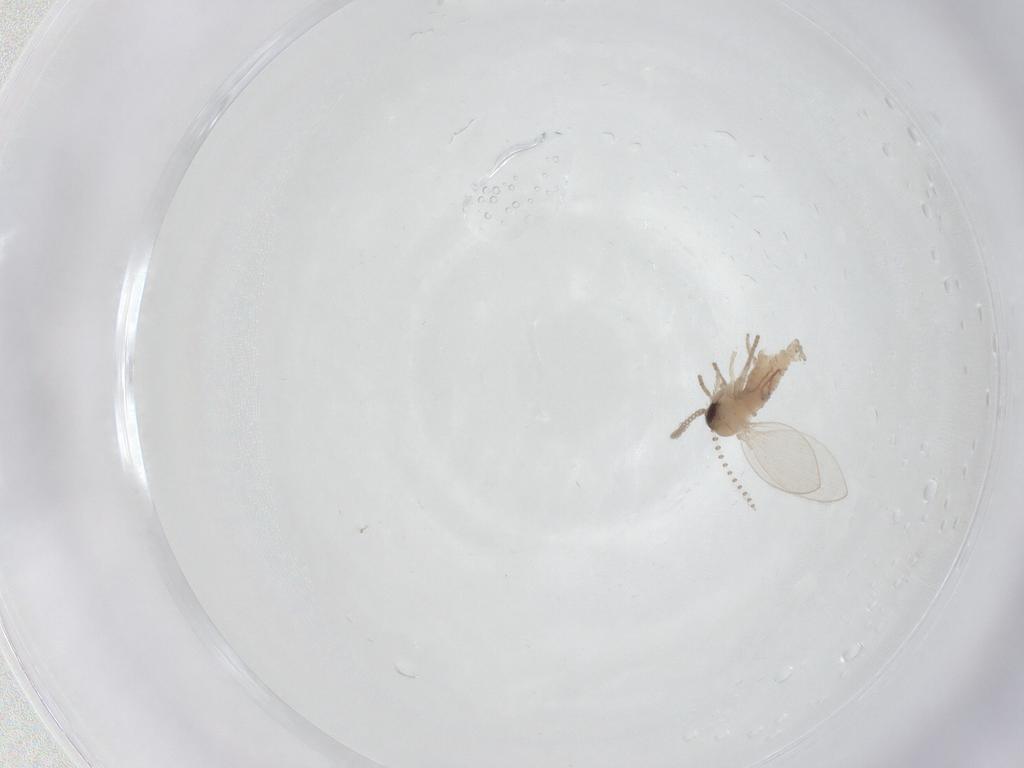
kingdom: Animalia
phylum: Arthropoda
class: Insecta
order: Diptera
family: Psychodidae
